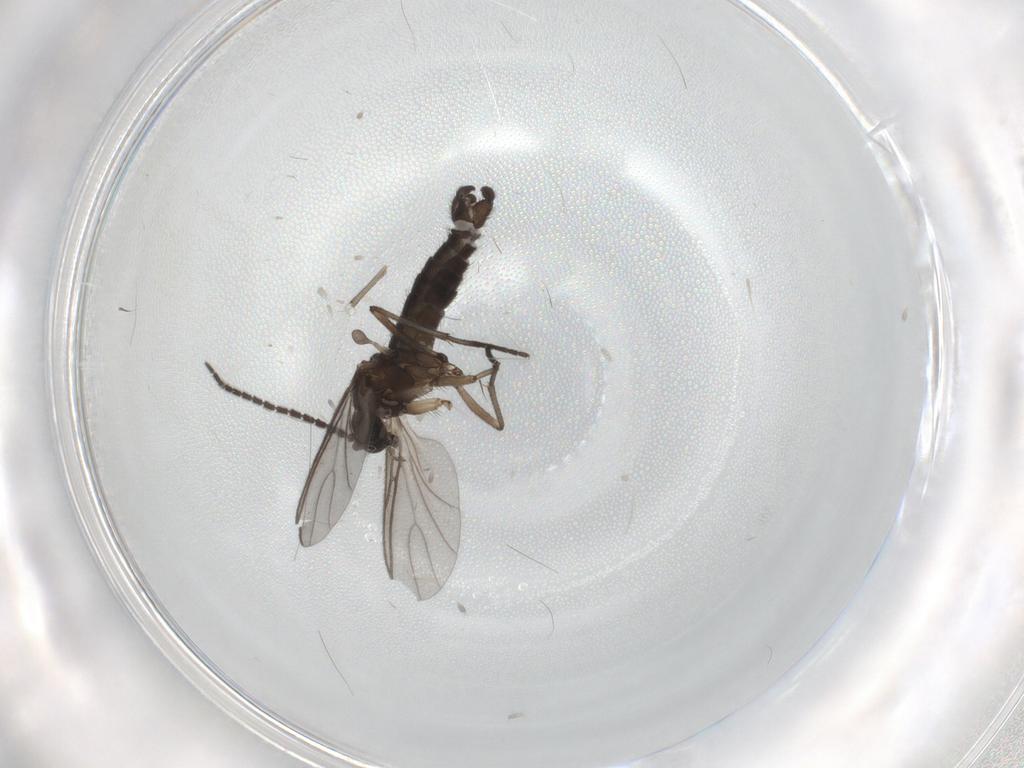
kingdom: Animalia
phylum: Arthropoda
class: Insecta
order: Diptera
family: Sciaridae
